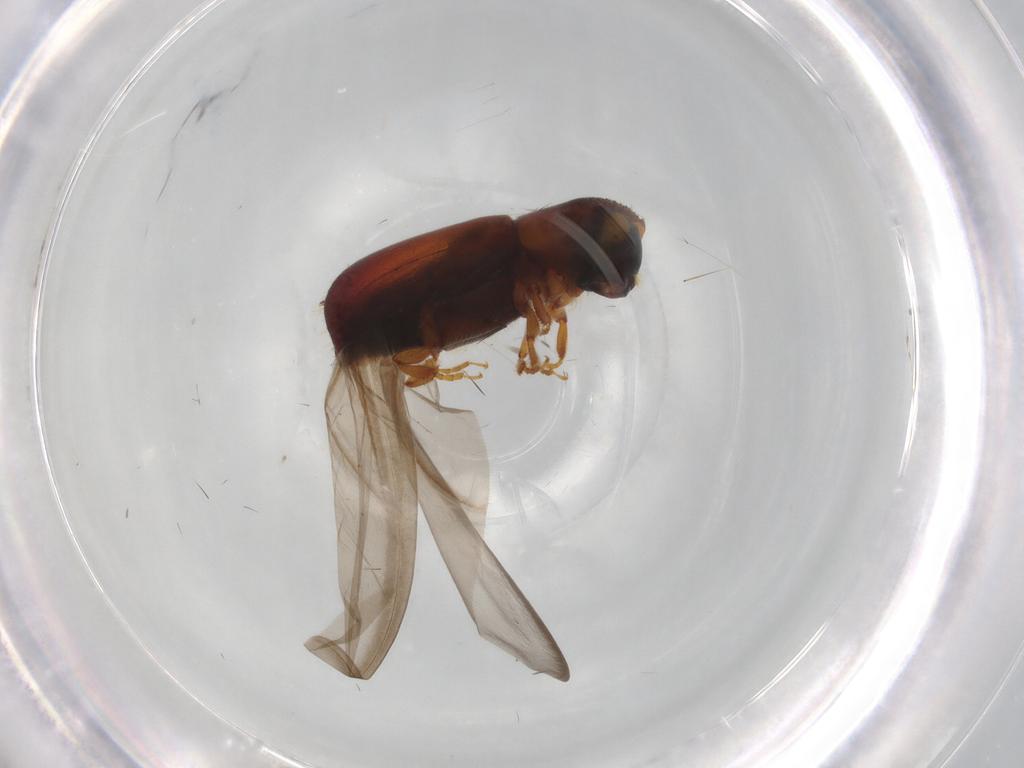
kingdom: Animalia
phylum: Arthropoda
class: Insecta
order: Coleoptera
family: Curculionidae
